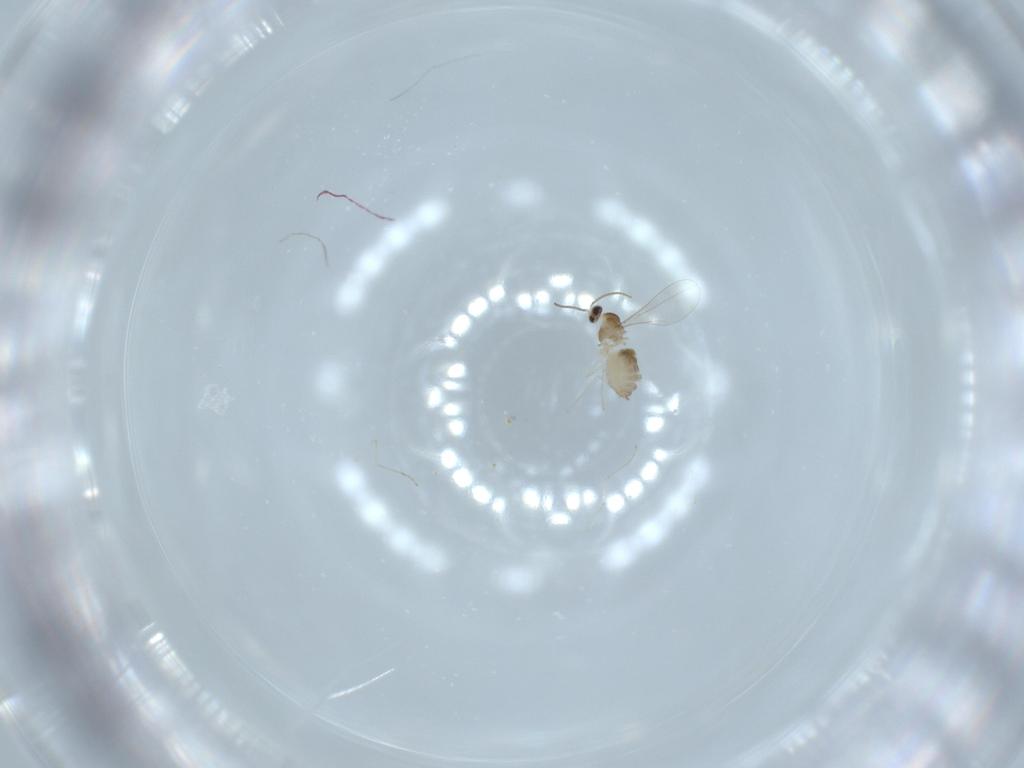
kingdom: Animalia
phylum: Arthropoda
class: Insecta
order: Diptera
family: Cecidomyiidae
